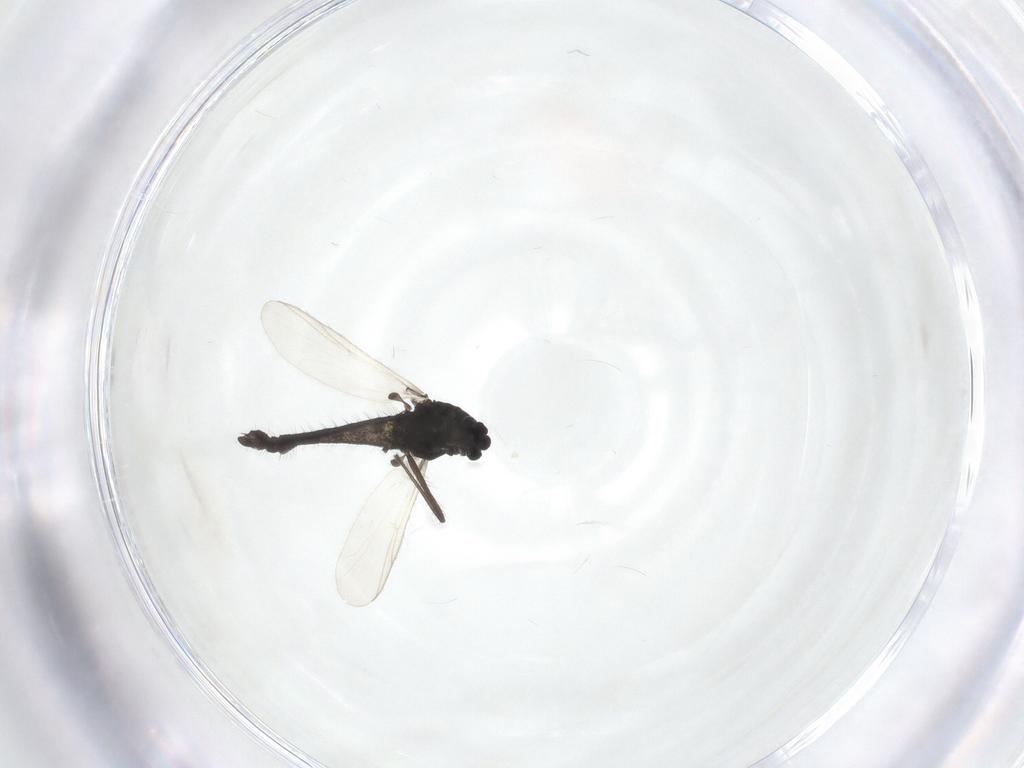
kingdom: Animalia
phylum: Arthropoda
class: Insecta
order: Diptera
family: Chironomidae
